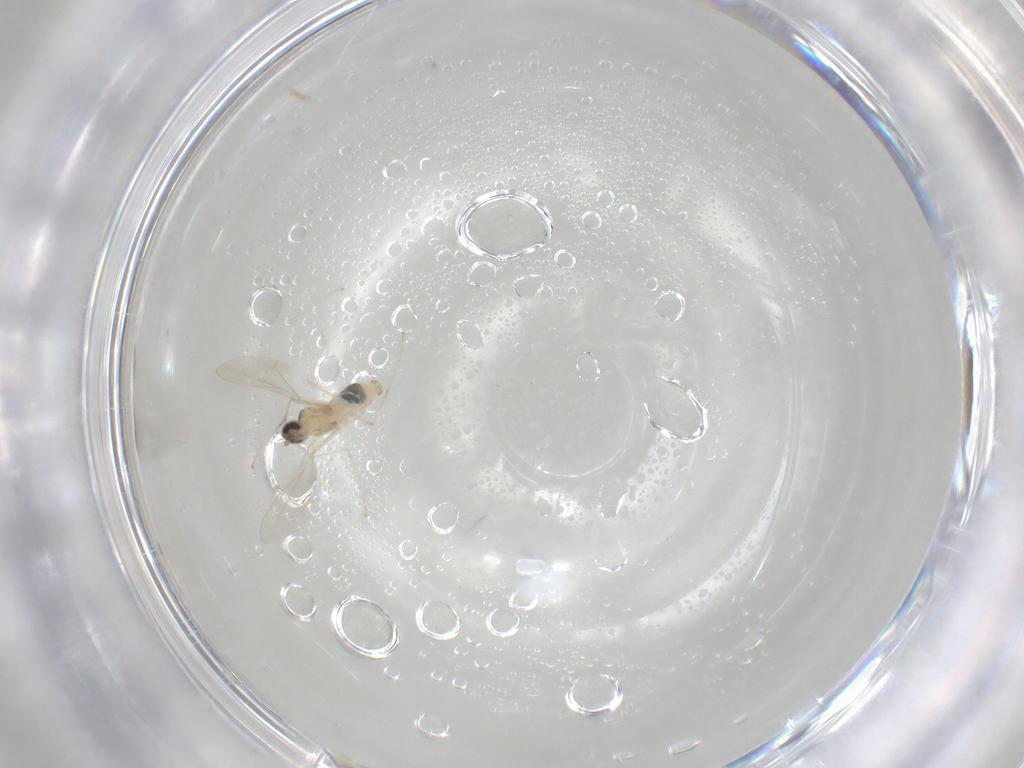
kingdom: Animalia
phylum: Arthropoda
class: Insecta
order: Diptera
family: Cecidomyiidae
